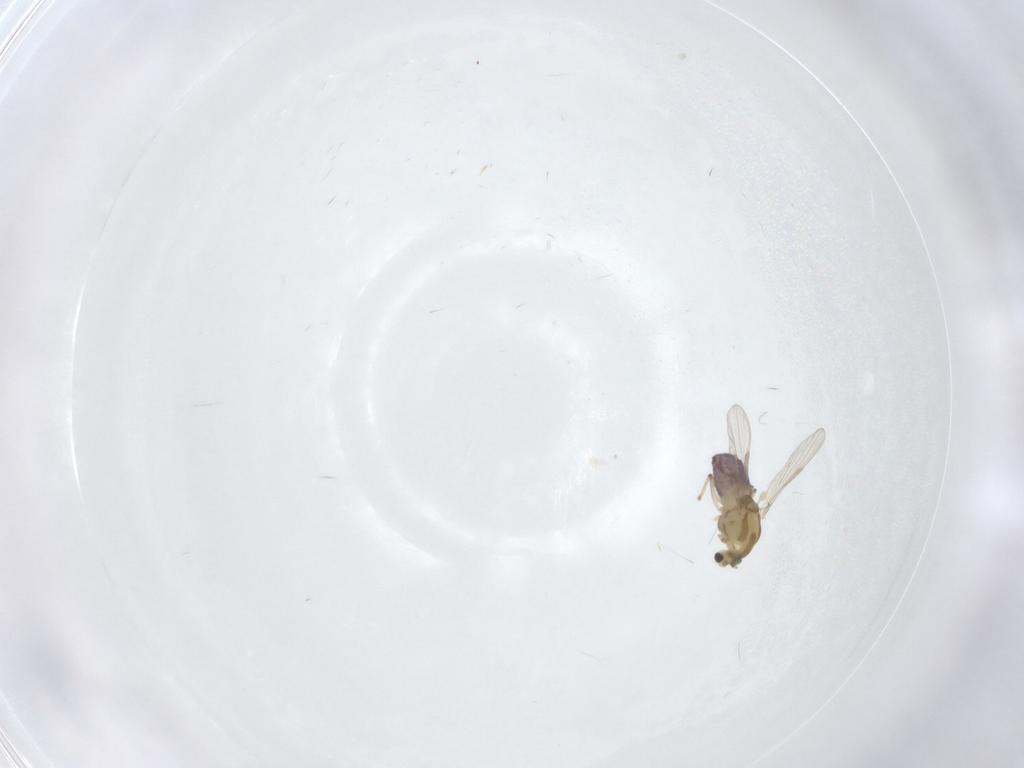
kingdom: Animalia
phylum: Arthropoda
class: Insecta
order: Diptera
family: Chironomidae
